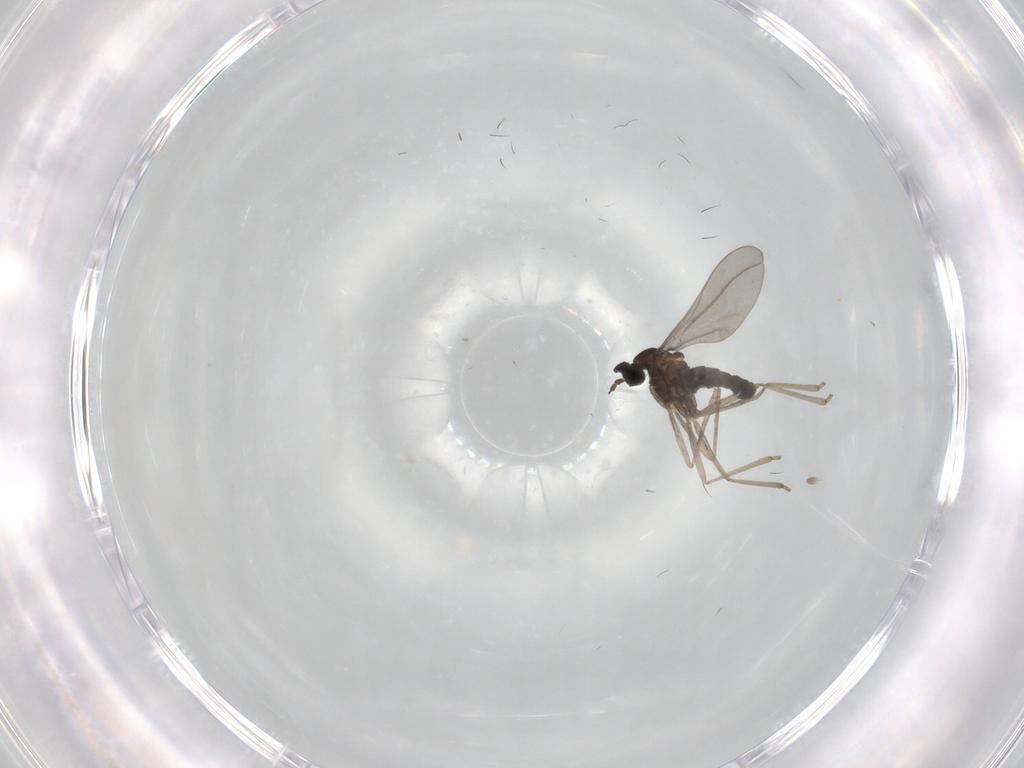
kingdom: Animalia
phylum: Arthropoda
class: Insecta
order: Diptera
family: Cecidomyiidae
